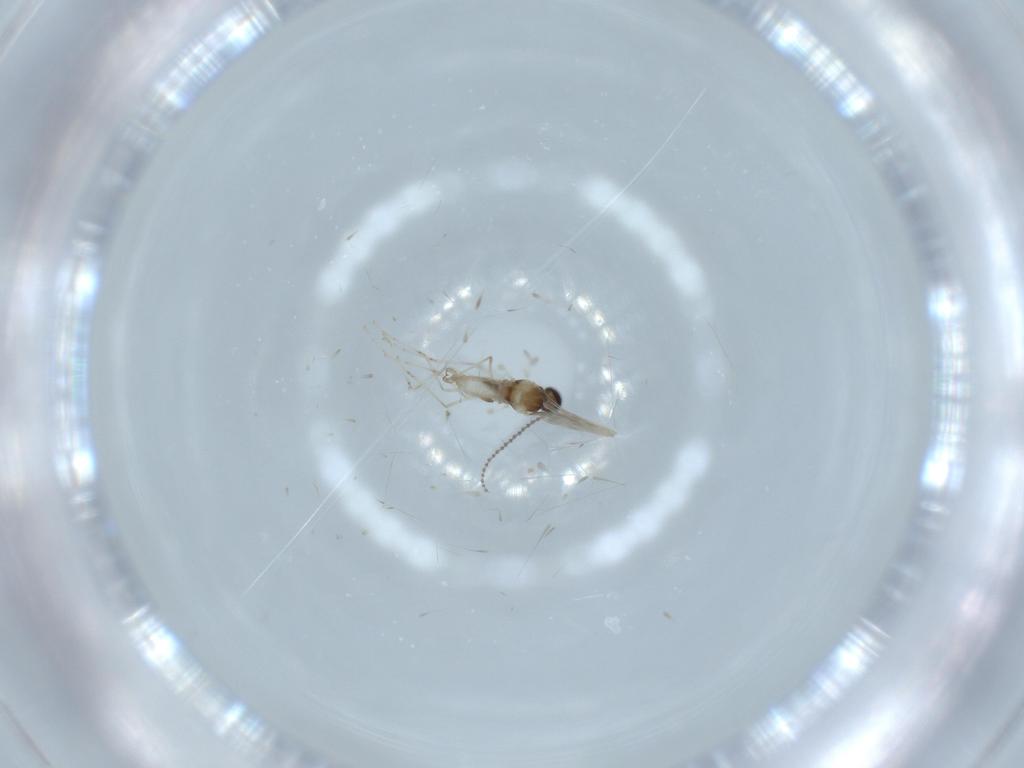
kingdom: Animalia
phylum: Arthropoda
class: Insecta
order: Diptera
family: Cecidomyiidae
